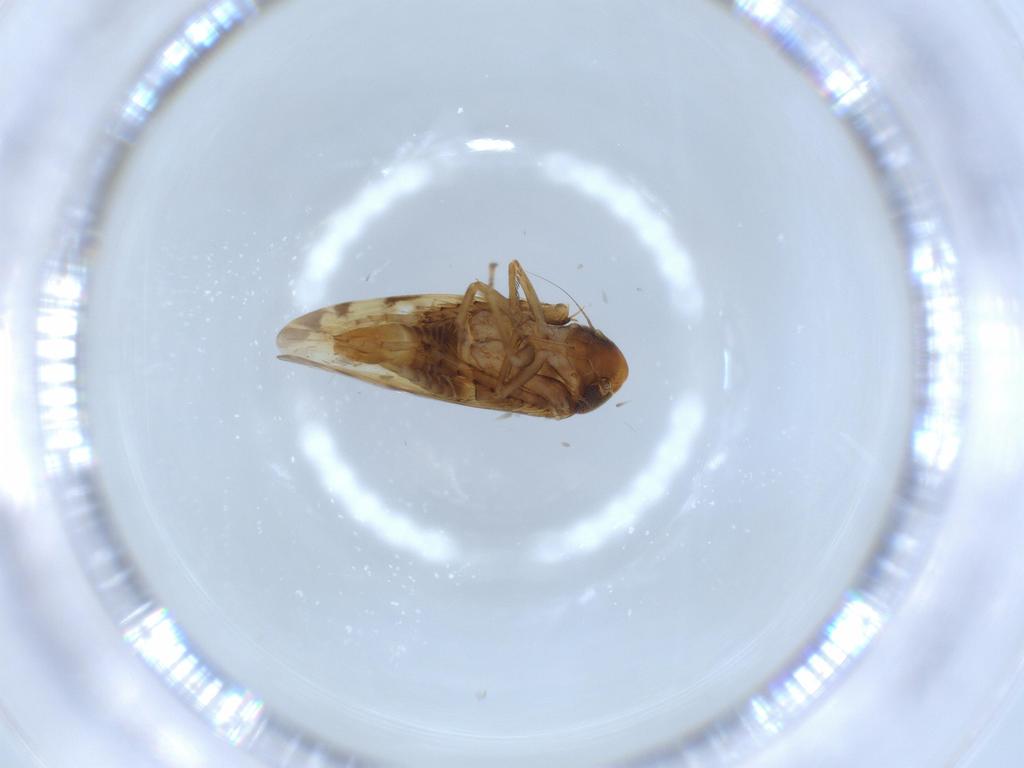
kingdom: Animalia
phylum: Arthropoda
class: Insecta
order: Hemiptera
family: Cicadellidae
